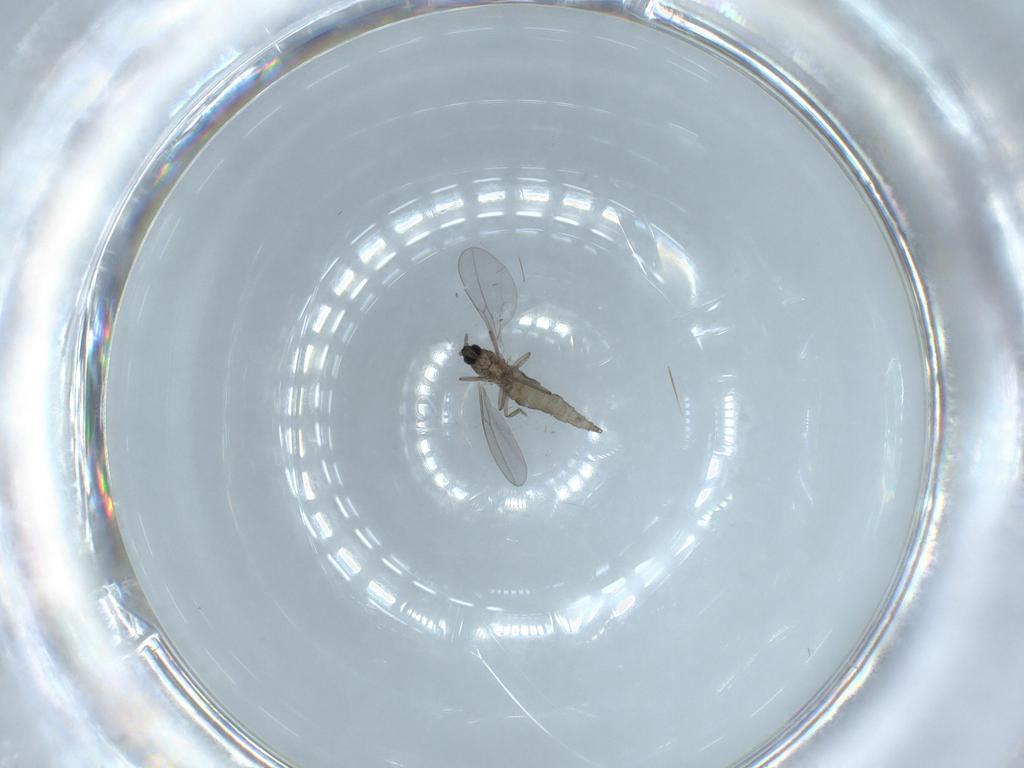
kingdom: Animalia
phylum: Arthropoda
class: Insecta
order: Diptera
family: Cecidomyiidae
